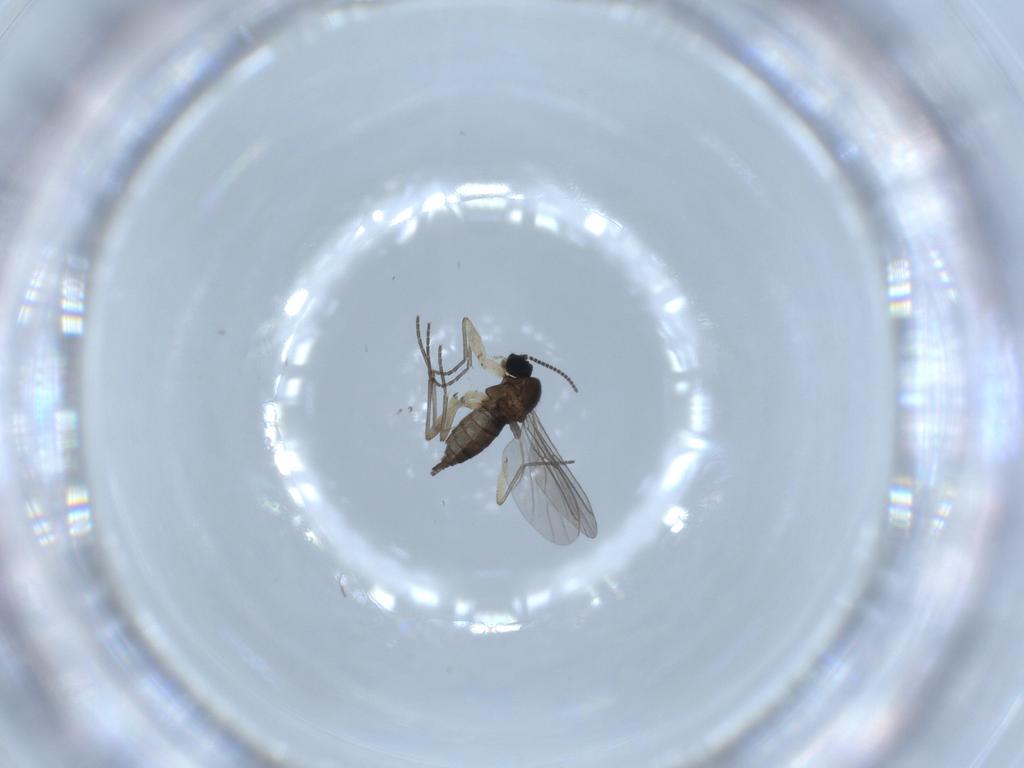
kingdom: Animalia
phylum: Arthropoda
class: Insecta
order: Diptera
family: Sciaridae
